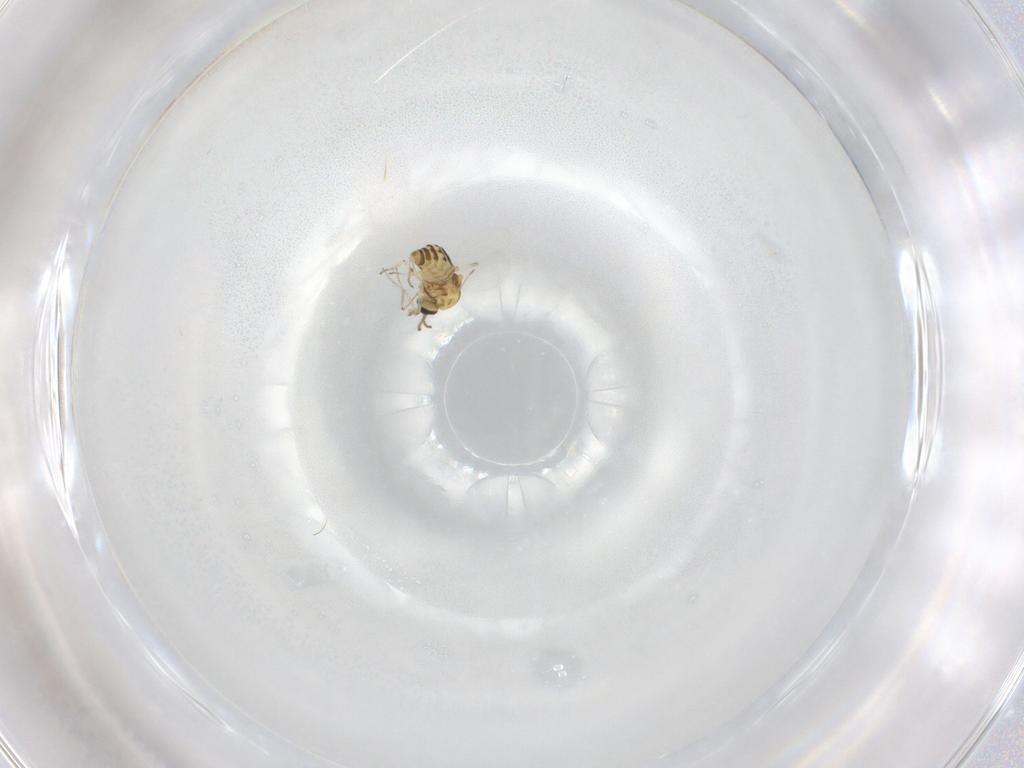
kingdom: Animalia
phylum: Arthropoda
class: Insecta
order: Diptera
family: Ceratopogonidae
